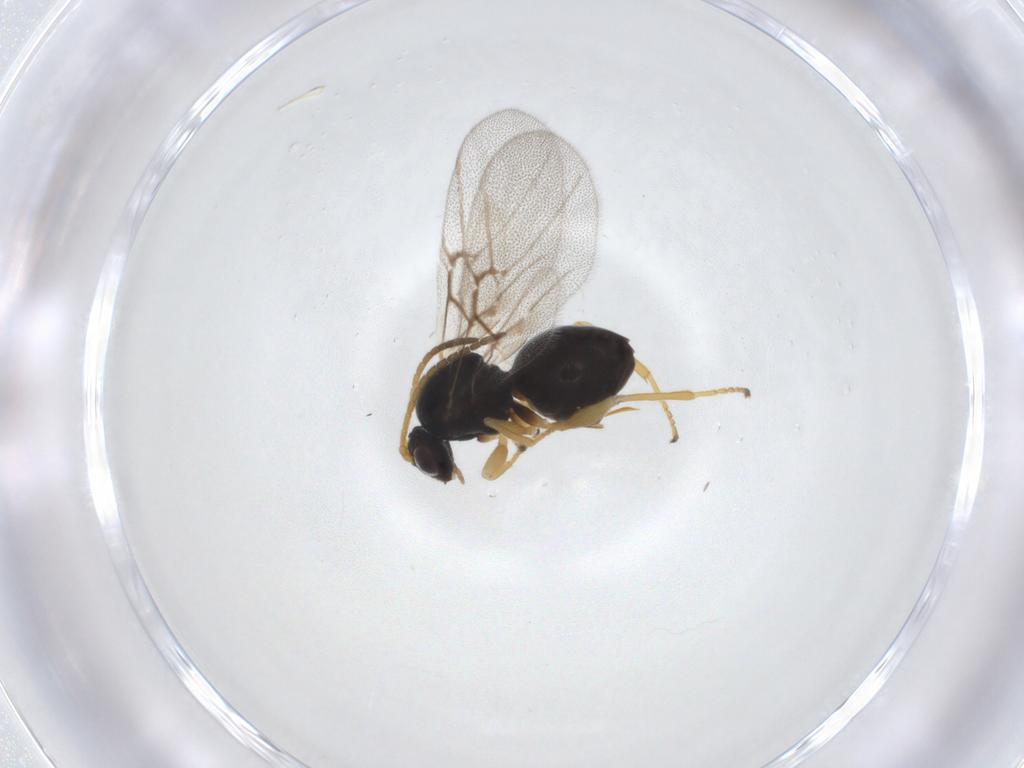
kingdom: Animalia
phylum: Arthropoda
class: Insecta
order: Hymenoptera
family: Cynipidae
